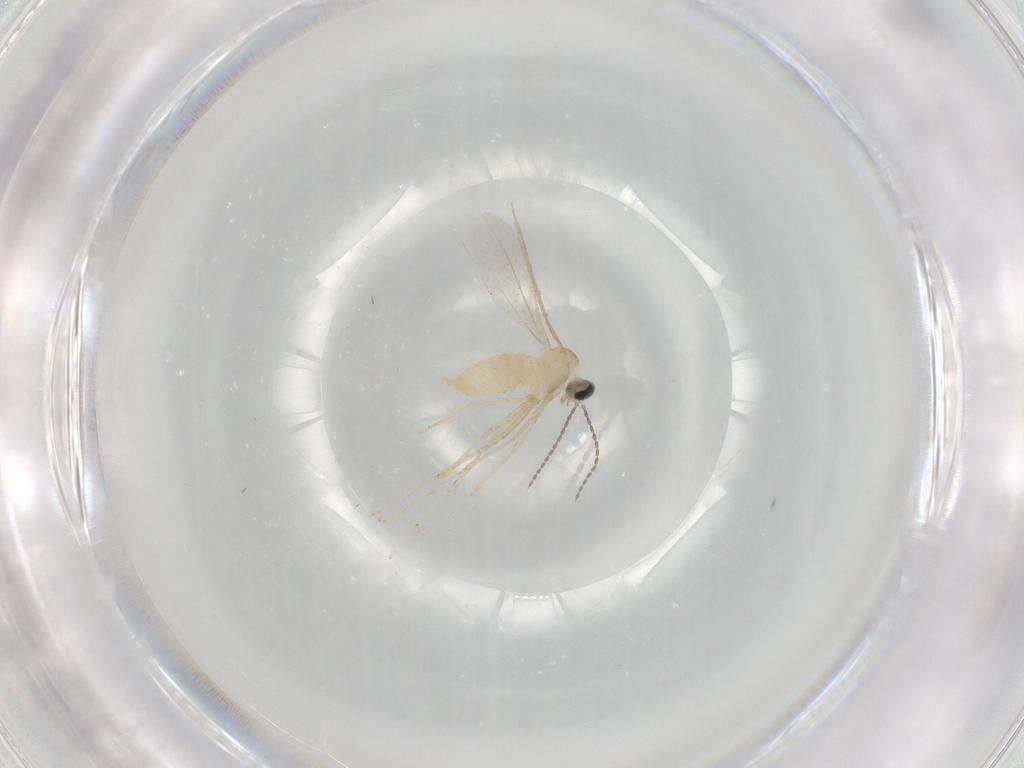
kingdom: Animalia
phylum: Arthropoda
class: Insecta
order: Diptera
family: Cecidomyiidae
